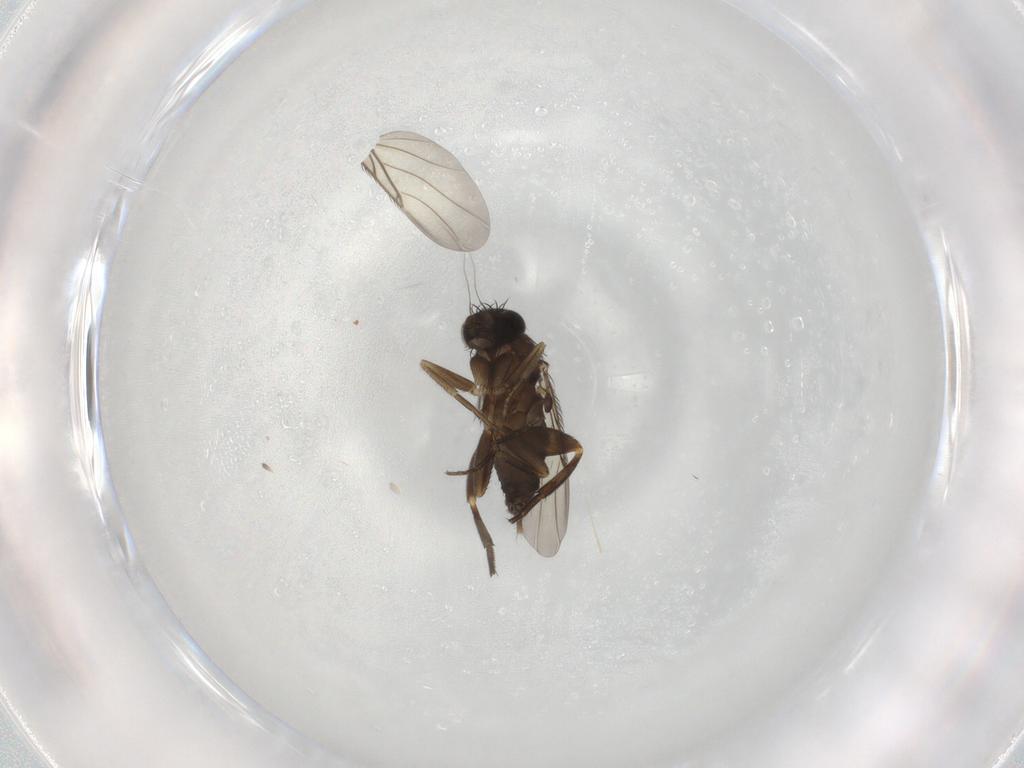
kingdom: Animalia
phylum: Arthropoda
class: Insecta
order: Diptera
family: Phoridae
